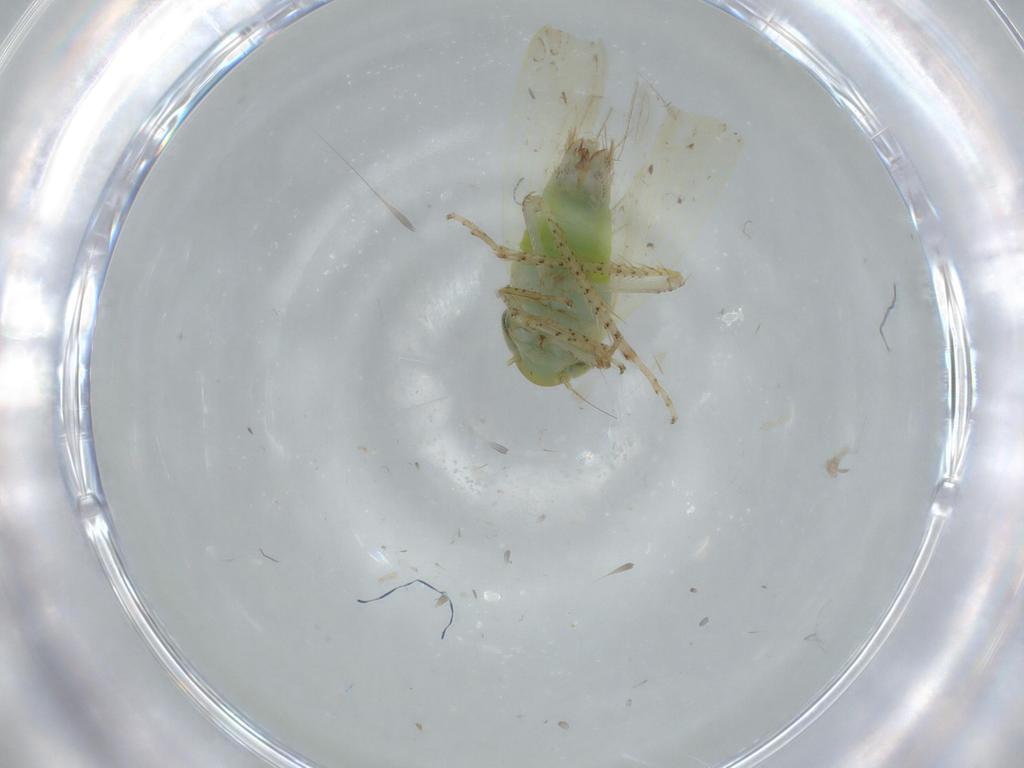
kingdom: Animalia
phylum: Arthropoda
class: Insecta
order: Hemiptera
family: Cicadellidae
